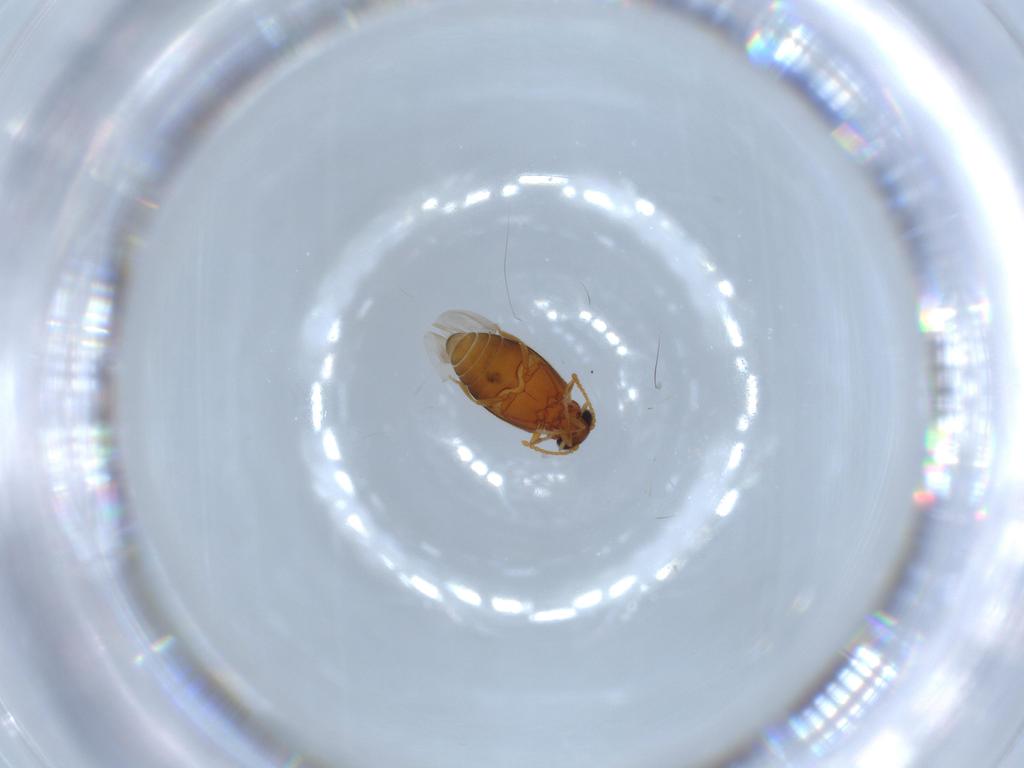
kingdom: Animalia
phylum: Arthropoda
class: Insecta
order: Coleoptera
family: Aderidae
